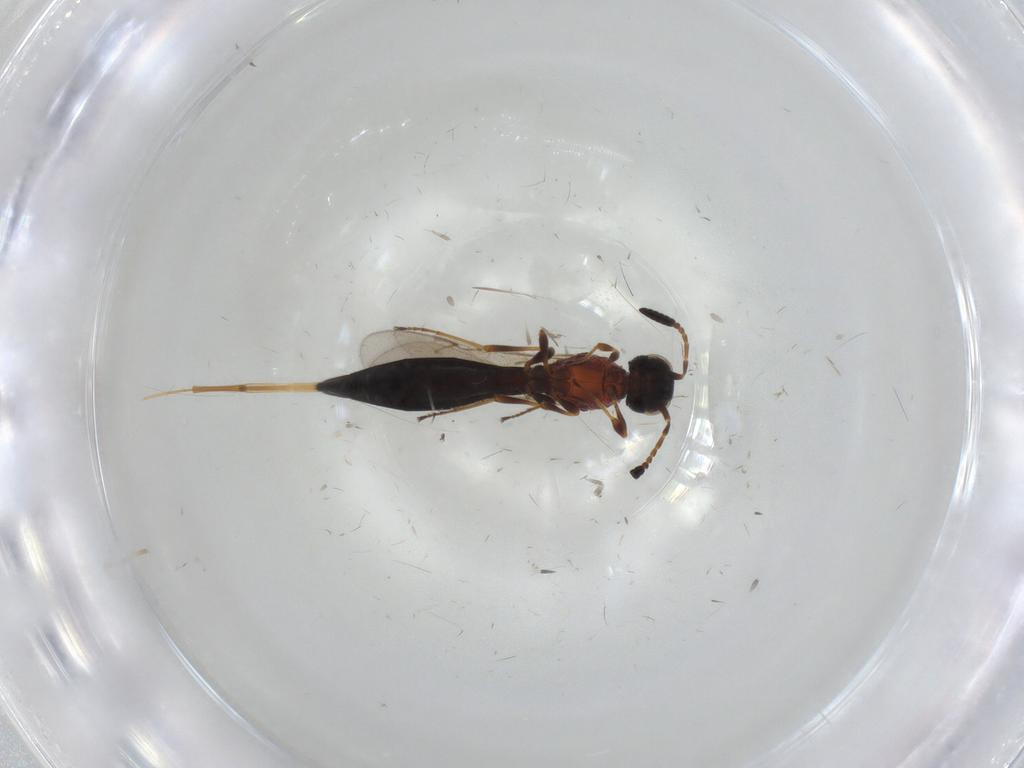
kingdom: Animalia
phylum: Arthropoda
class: Insecta
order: Hymenoptera
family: Scelionidae
